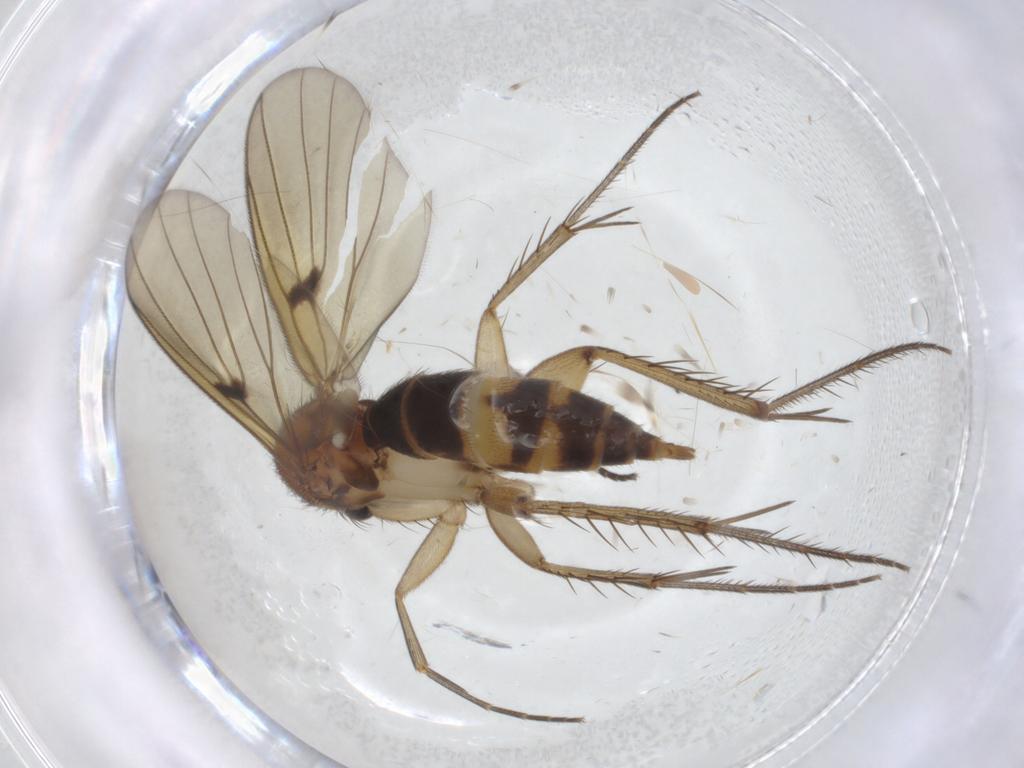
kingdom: Animalia
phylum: Arthropoda
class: Insecta
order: Diptera
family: Mycetophilidae
